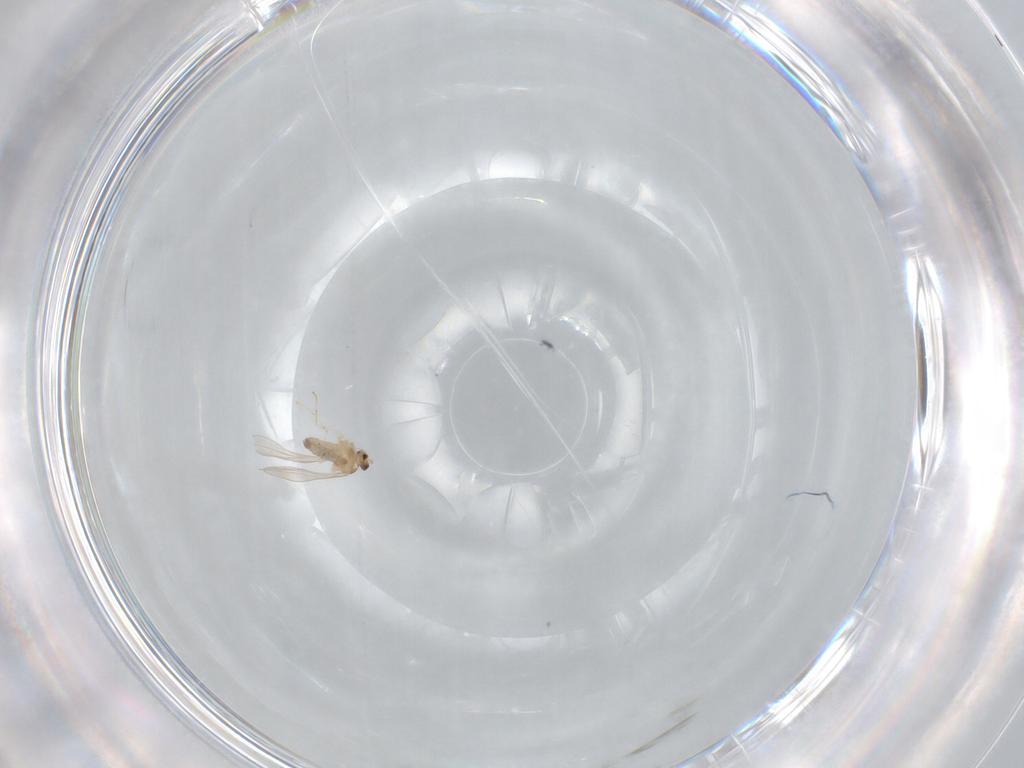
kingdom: Animalia
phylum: Arthropoda
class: Insecta
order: Diptera
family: Cecidomyiidae
